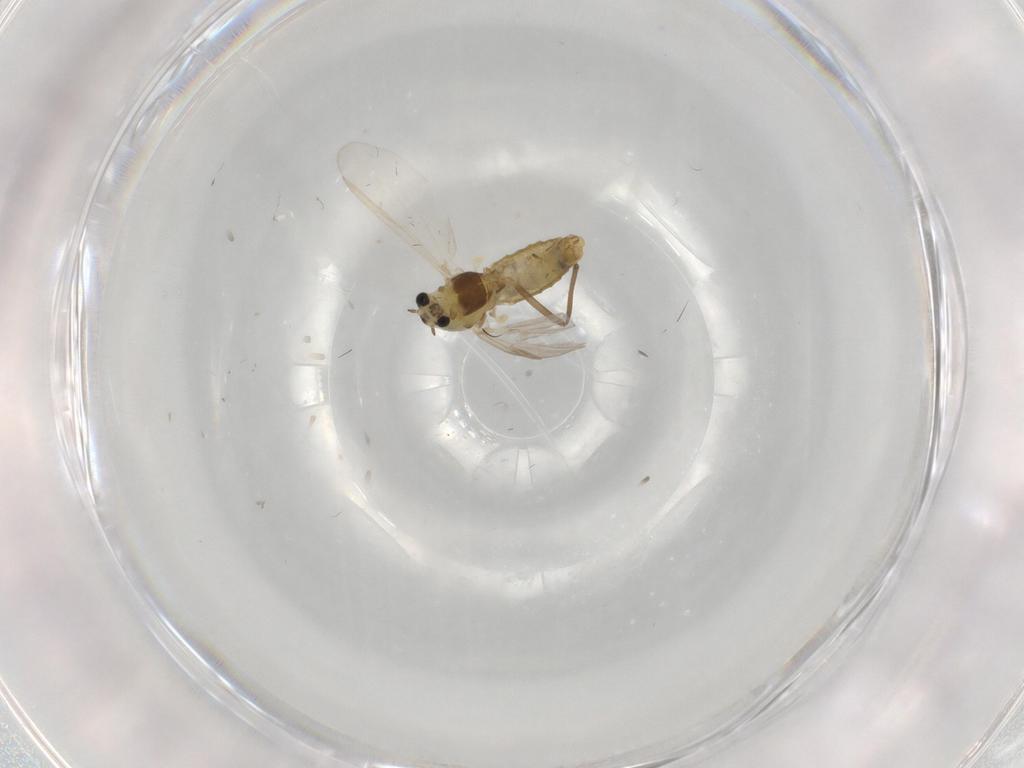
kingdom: Animalia
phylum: Arthropoda
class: Insecta
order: Diptera
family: Chironomidae
